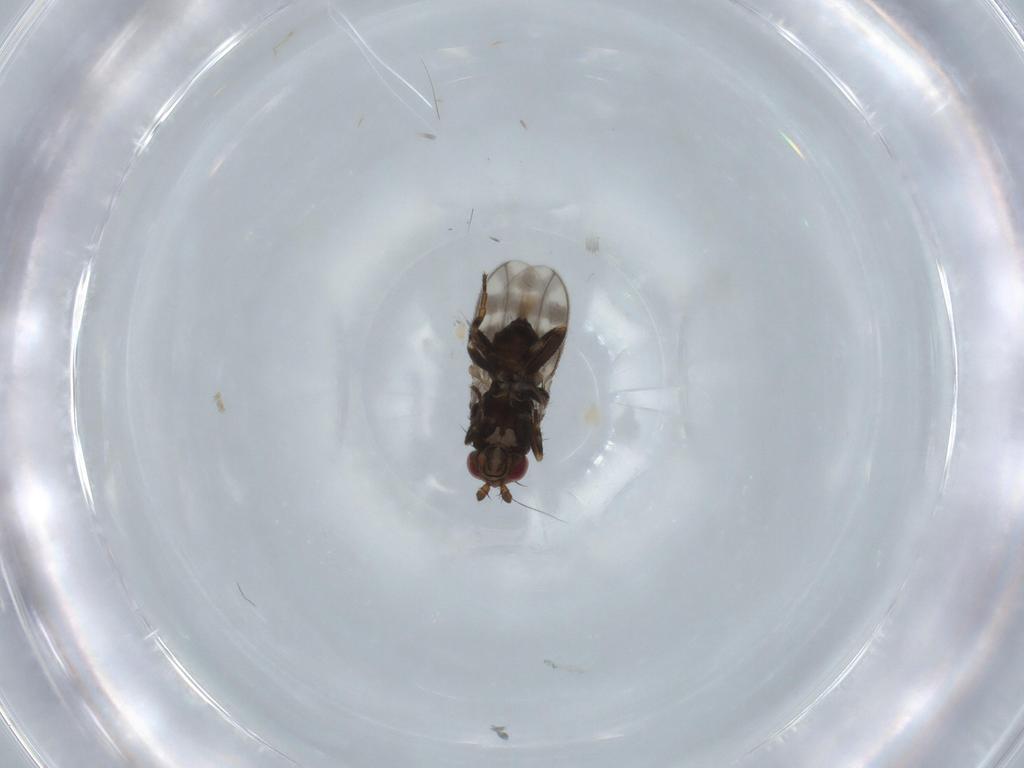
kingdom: Animalia
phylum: Arthropoda
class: Insecta
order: Diptera
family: Sphaeroceridae
